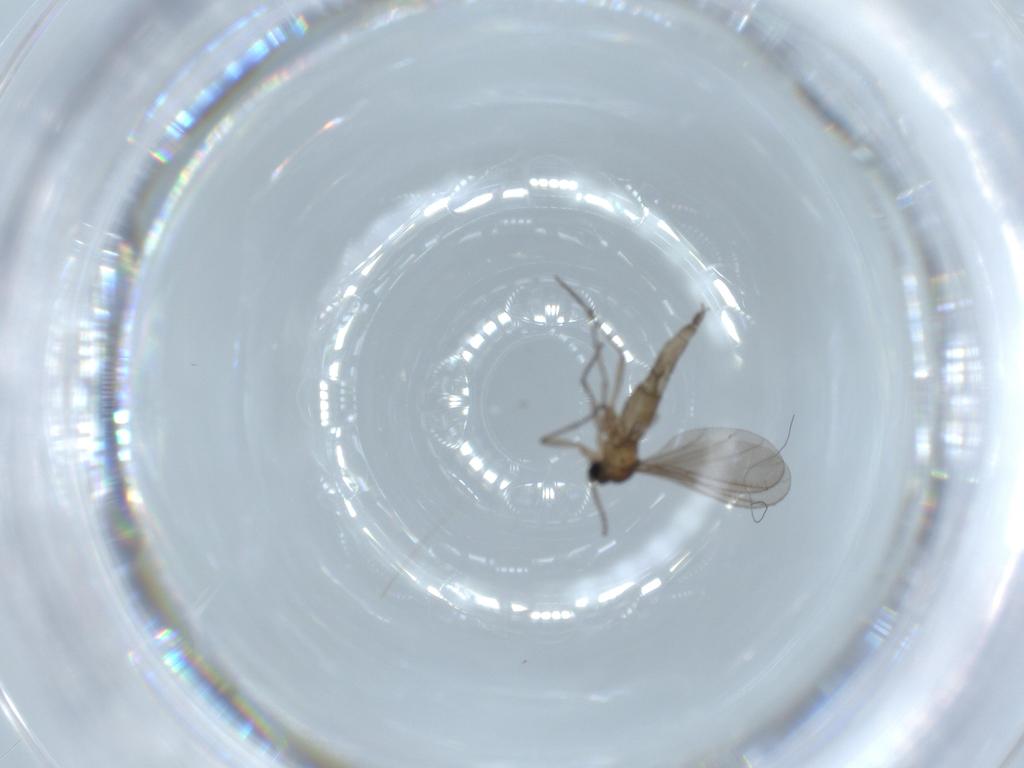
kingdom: Animalia
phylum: Arthropoda
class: Insecta
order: Diptera
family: Sciaridae
